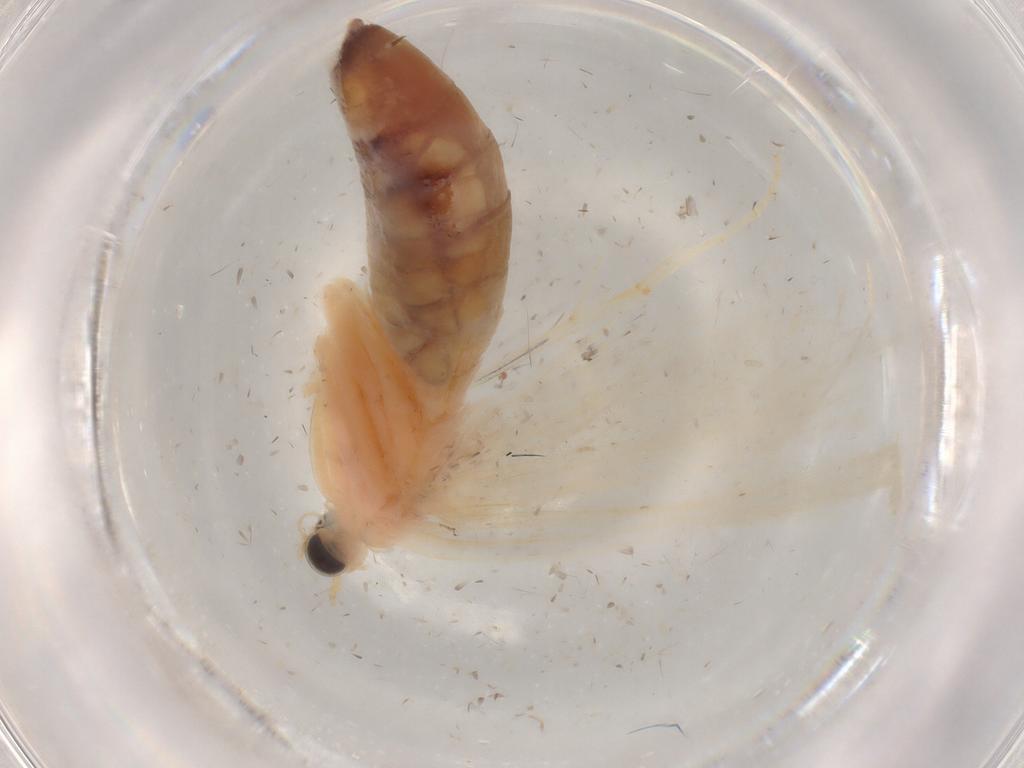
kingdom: Animalia
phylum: Arthropoda
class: Insecta
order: Lepidoptera
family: Crambidae
